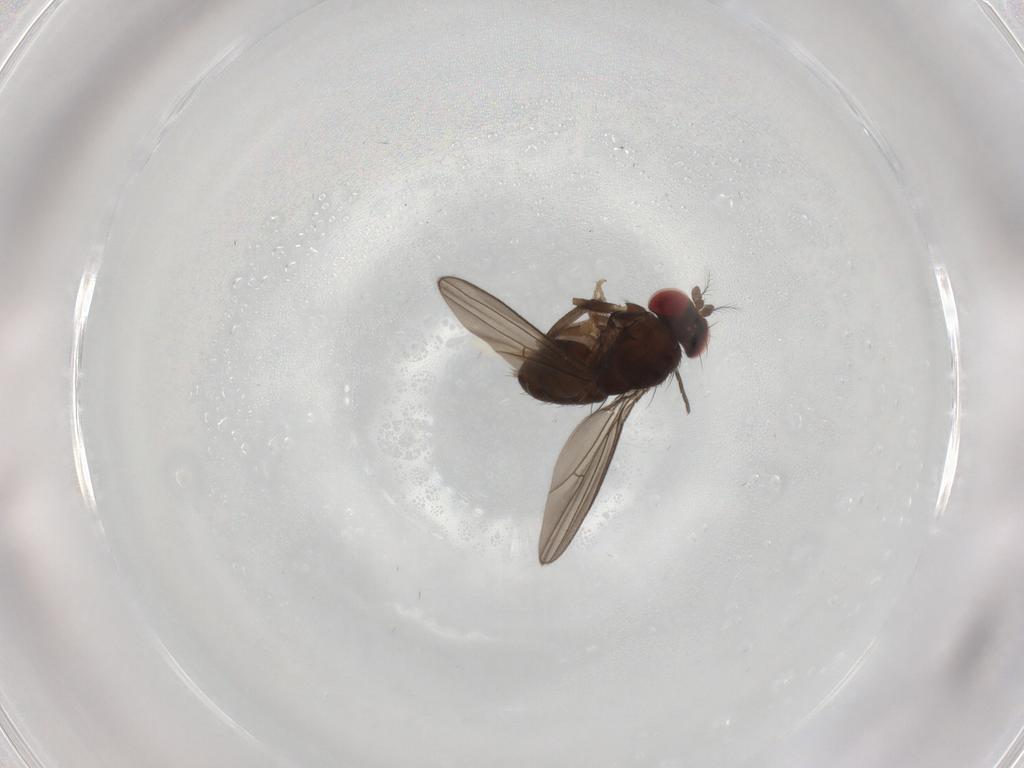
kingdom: Animalia
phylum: Arthropoda
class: Insecta
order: Diptera
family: Drosophilidae
